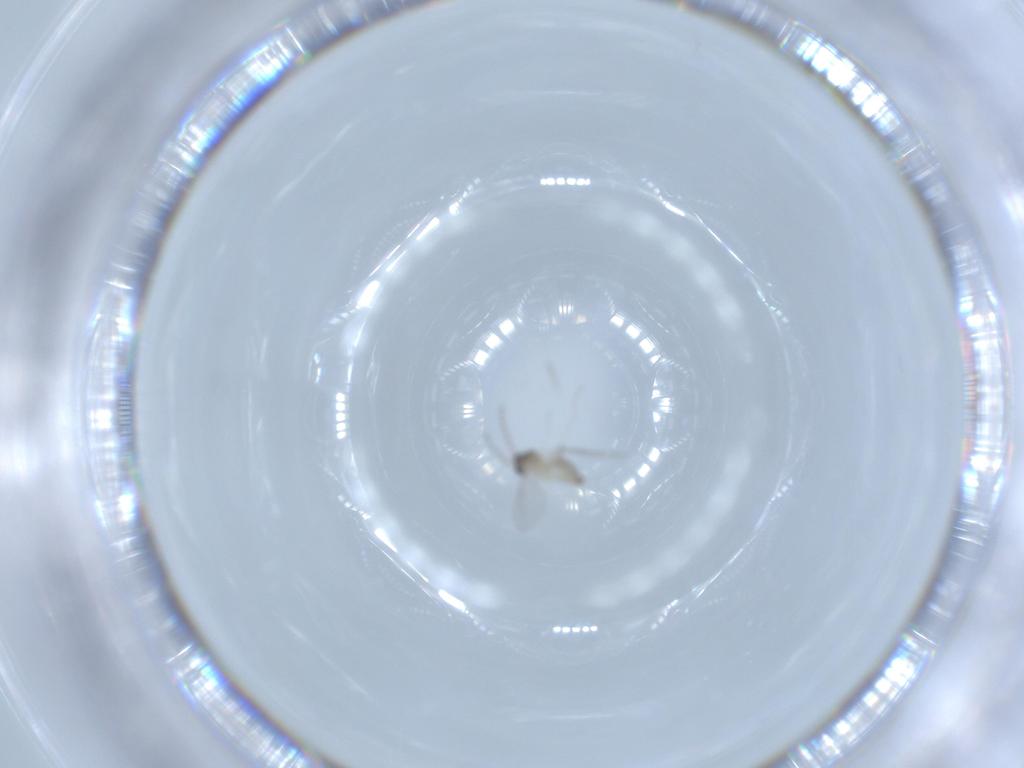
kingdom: Animalia
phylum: Arthropoda
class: Insecta
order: Diptera
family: Cecidomyiidae
